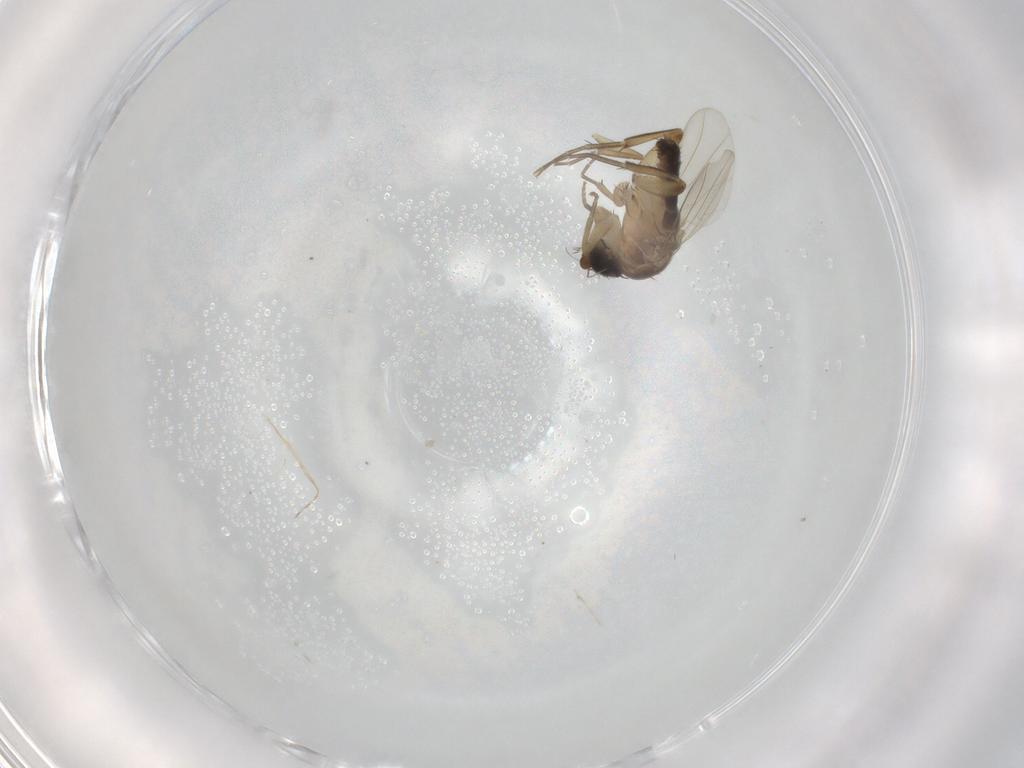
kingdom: Animalia
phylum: Arthropoda
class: Insecta
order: Diptera
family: Phoridae
